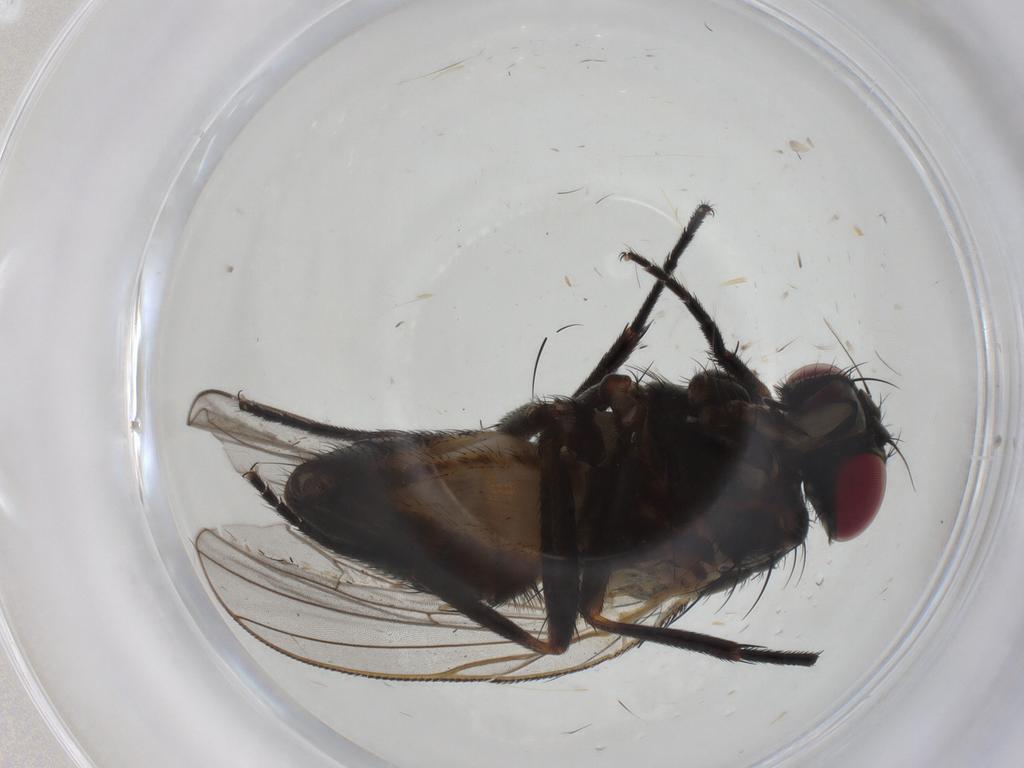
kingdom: Animalia
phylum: Arthropoda
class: Insecta
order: Diptera
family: Fannia
